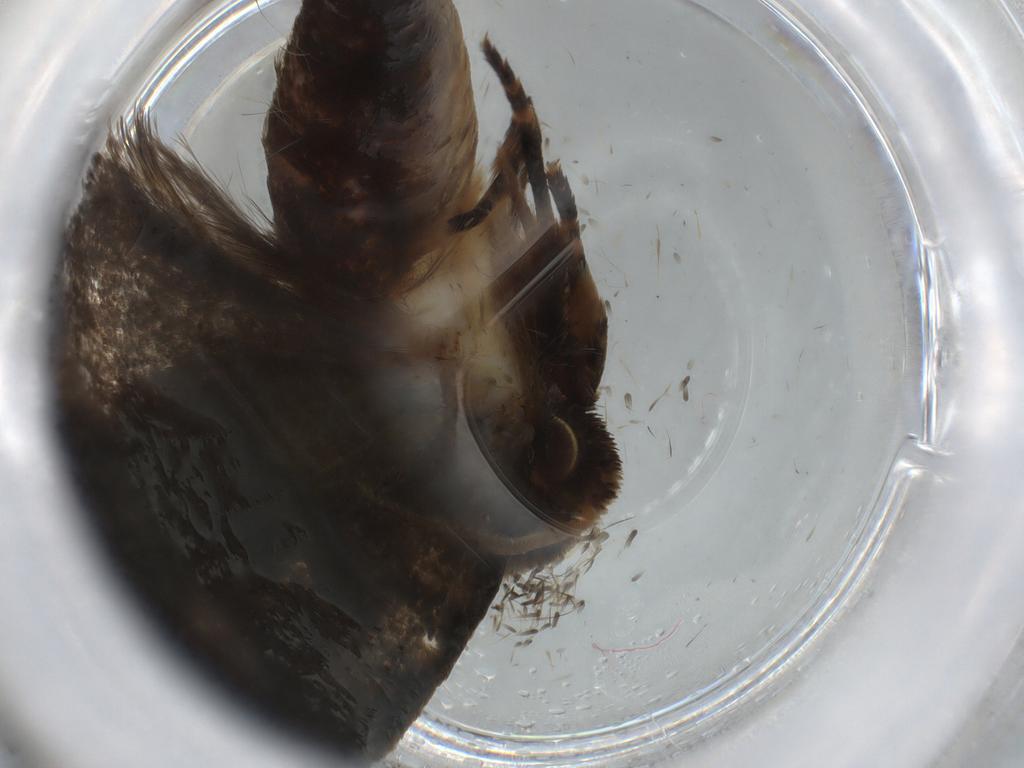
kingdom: Animalia
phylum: Arthropoda
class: Insecta
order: Lepidoptera
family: Tineidae
